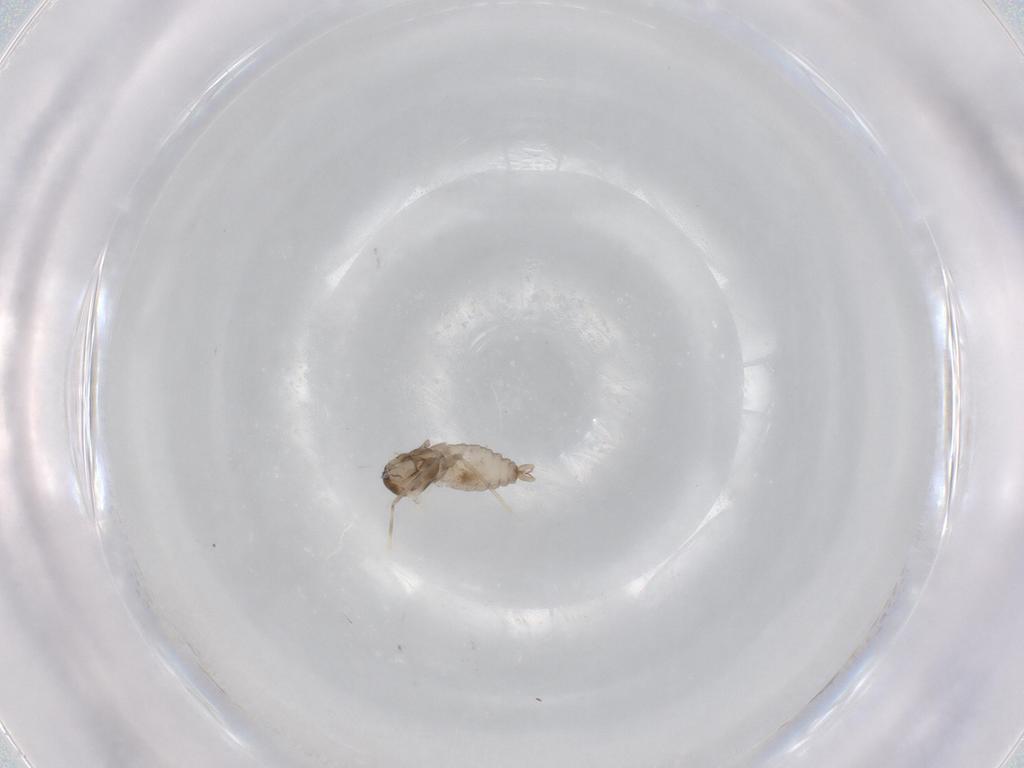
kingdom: Animalia
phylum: Arthropoda
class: Insecta
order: Diptera
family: Cecidomyiidae
